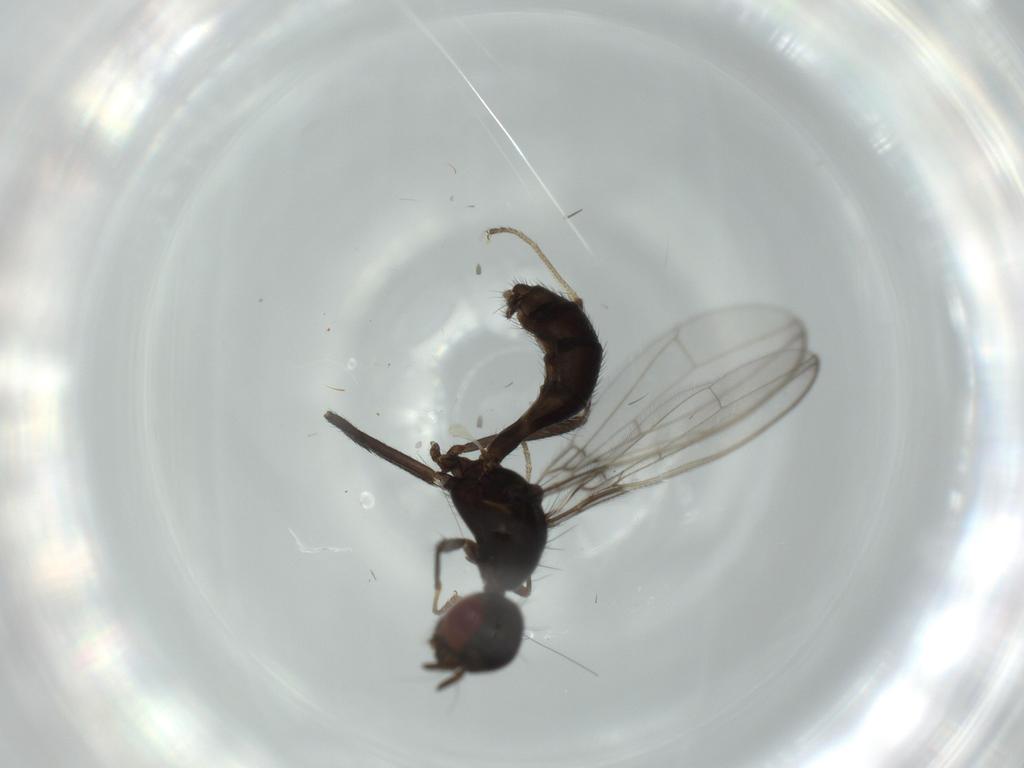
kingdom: Animalia
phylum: Arthropoda
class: Insecta
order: Diptera
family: Richardiidae
